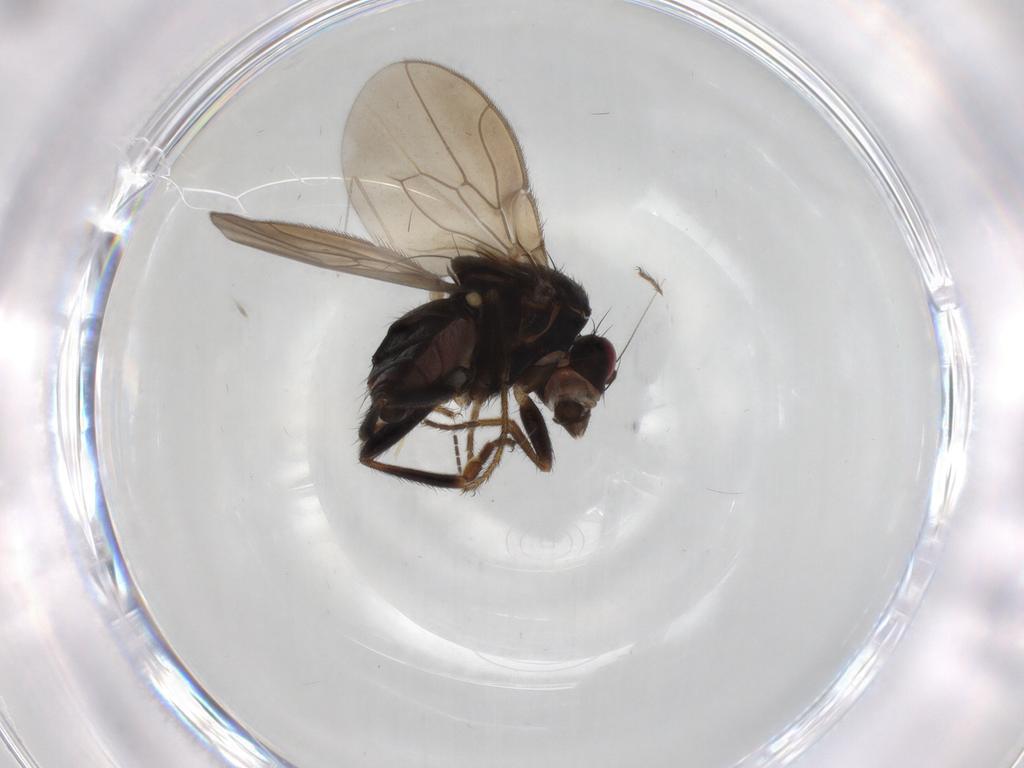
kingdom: Animalia
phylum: Arthropoda
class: Insecta
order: Diptera
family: Sphaeroceridae
